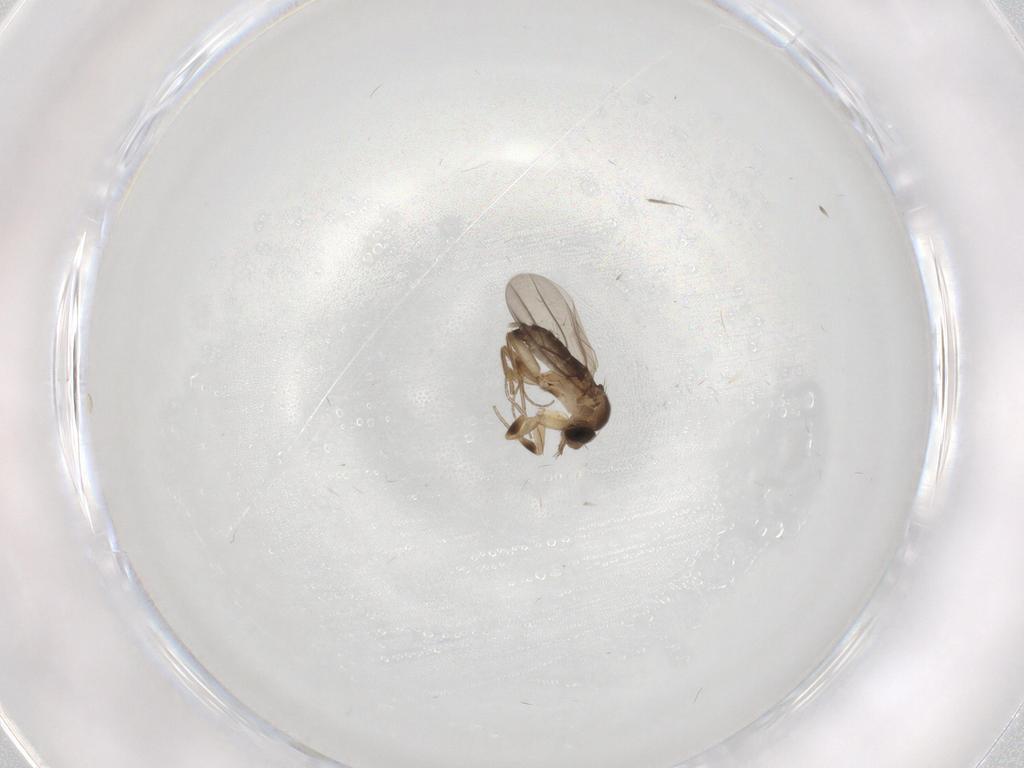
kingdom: Animalia
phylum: Arthropoda
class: Insecta
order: Diptera
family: Phoridae
